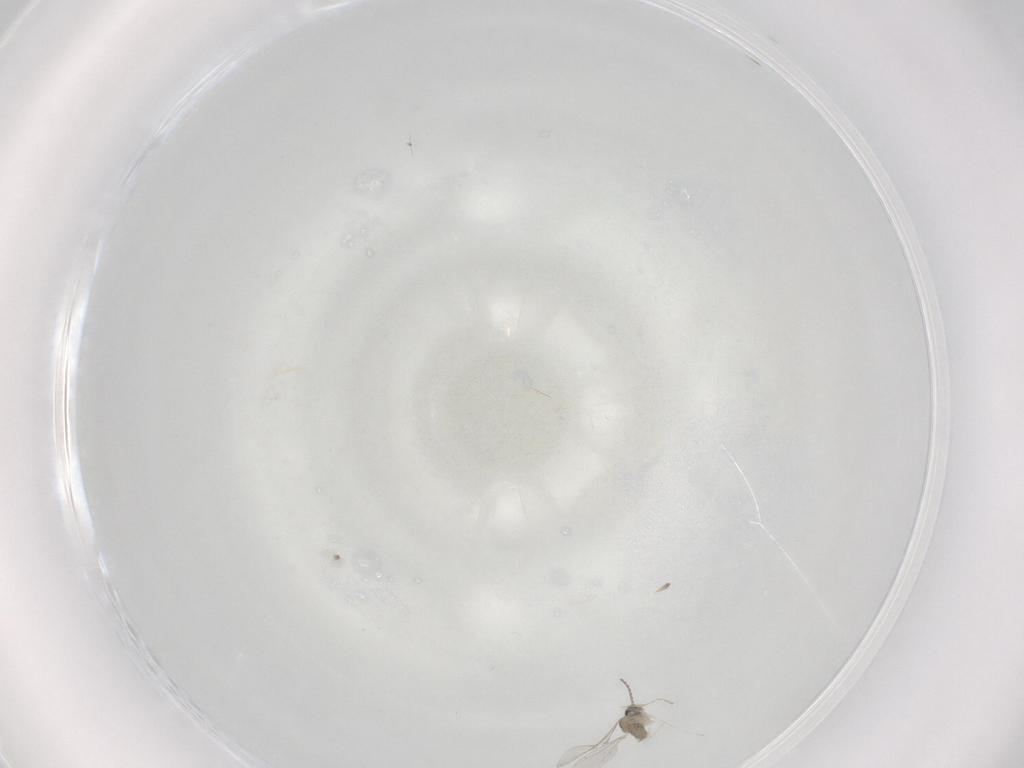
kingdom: Animalia
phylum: Arthropoda
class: Insecta
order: Diptera
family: Cecidomyiidae
